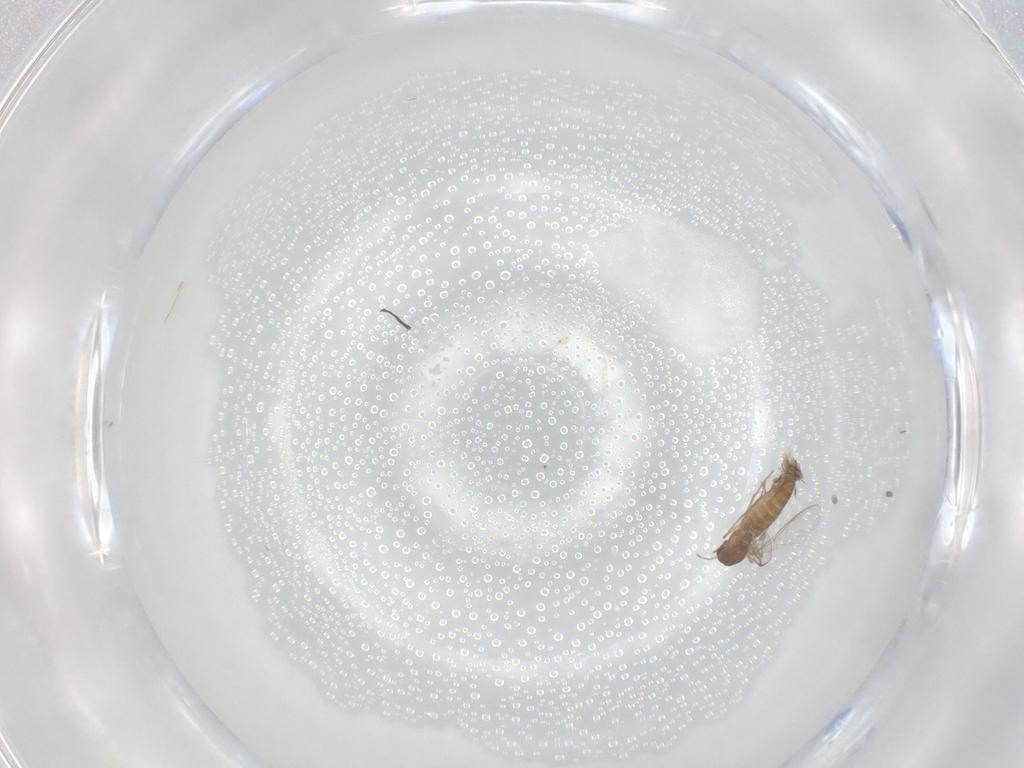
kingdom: Animalia
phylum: Arthropoda
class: Insecta
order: Diptera
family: Chironomidae
